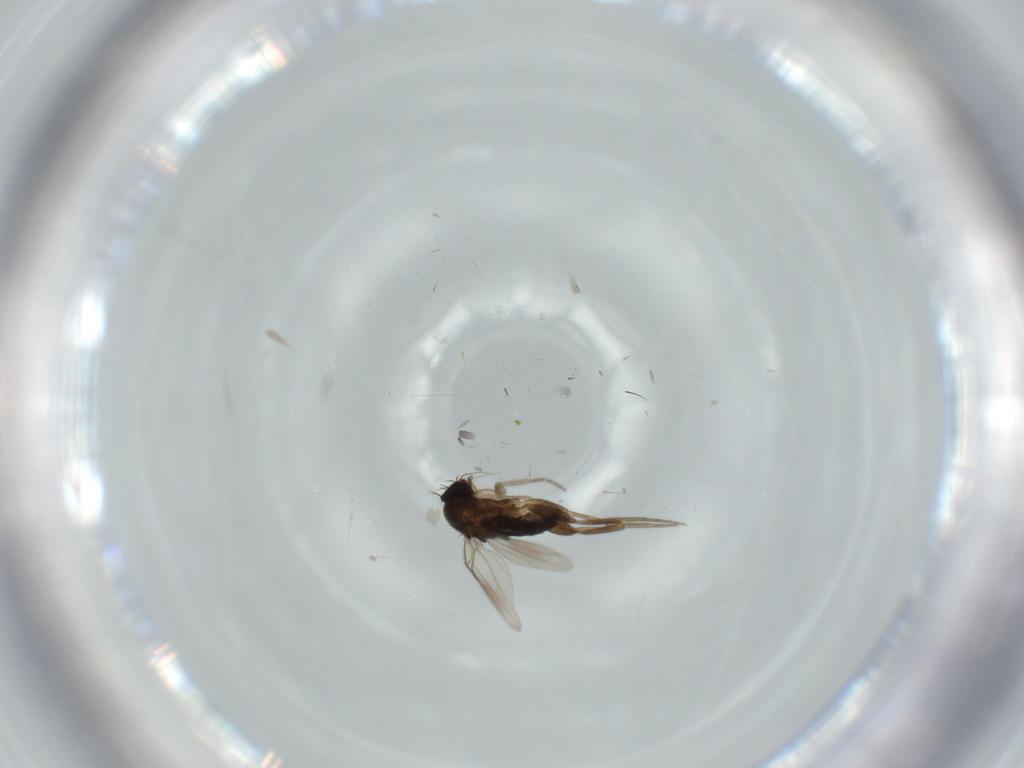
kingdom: Animalia
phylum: Arthropoda
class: Insecta
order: Diptera
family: Phoridae
